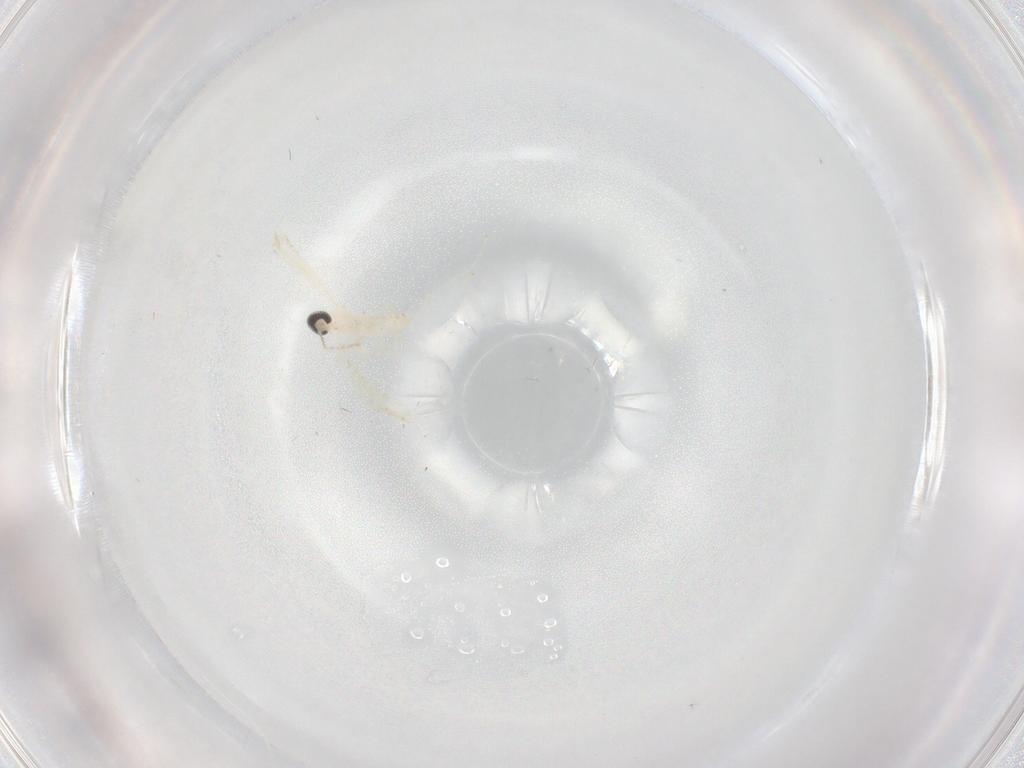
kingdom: Animalia
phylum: Arthropoda
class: Insecta
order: Diptera
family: Cecidomyiidae
